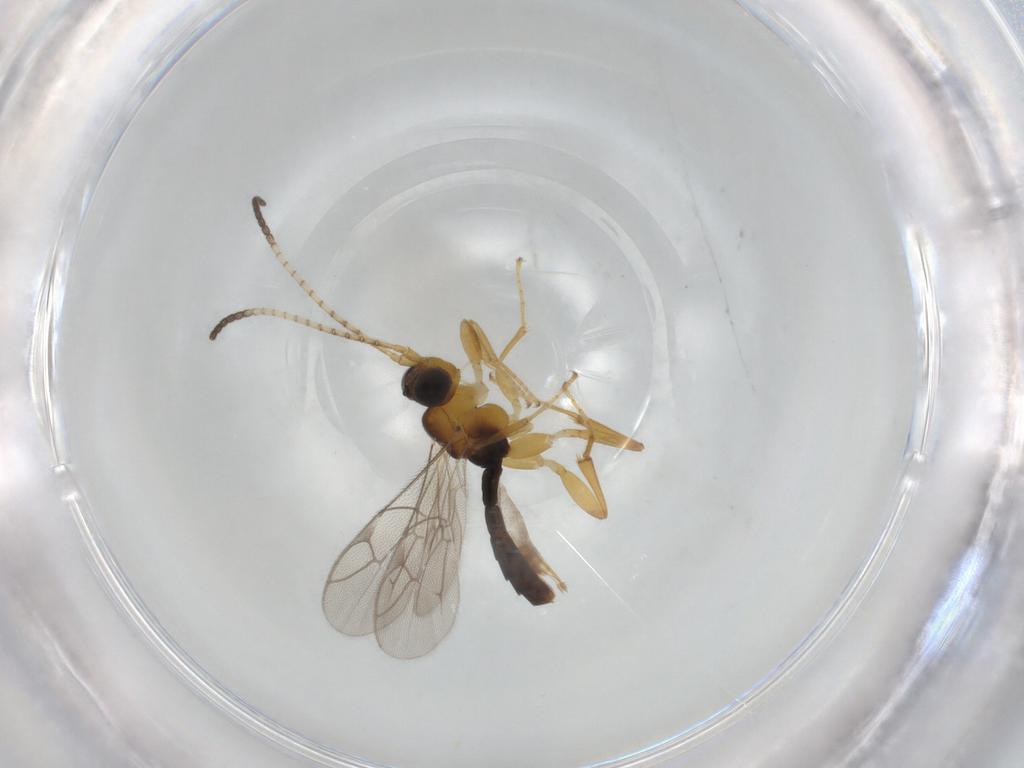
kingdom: Animalia
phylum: Arthropoda
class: Insecta
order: Hymenoptera
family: Ichneumonidae
